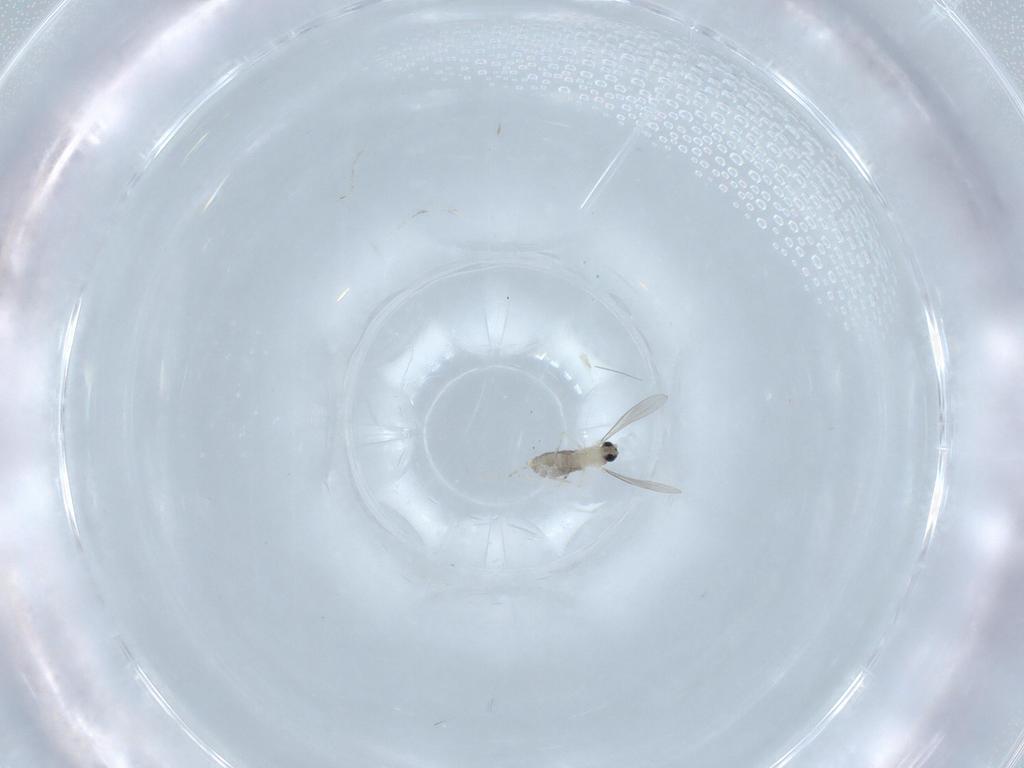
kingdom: Animalia
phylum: Arthropoda
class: Insecta
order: Diptera
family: Cecidomyiidae
